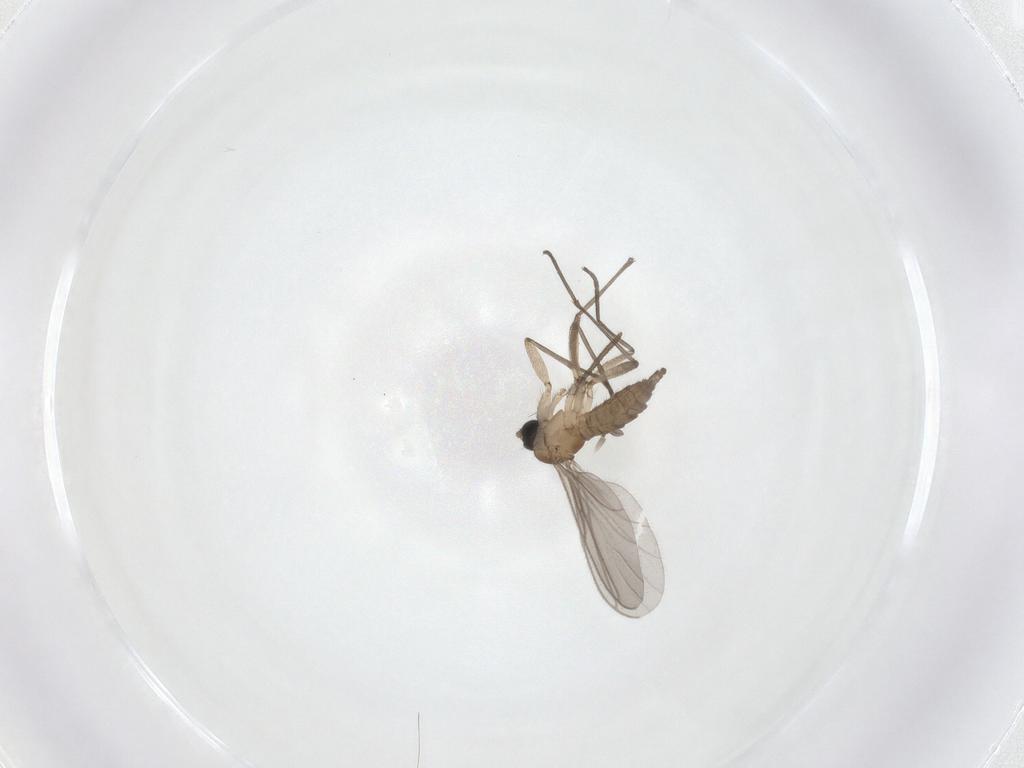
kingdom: Animalia
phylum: Arthropoda
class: Insecta
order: Diptera
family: Sciaridae
